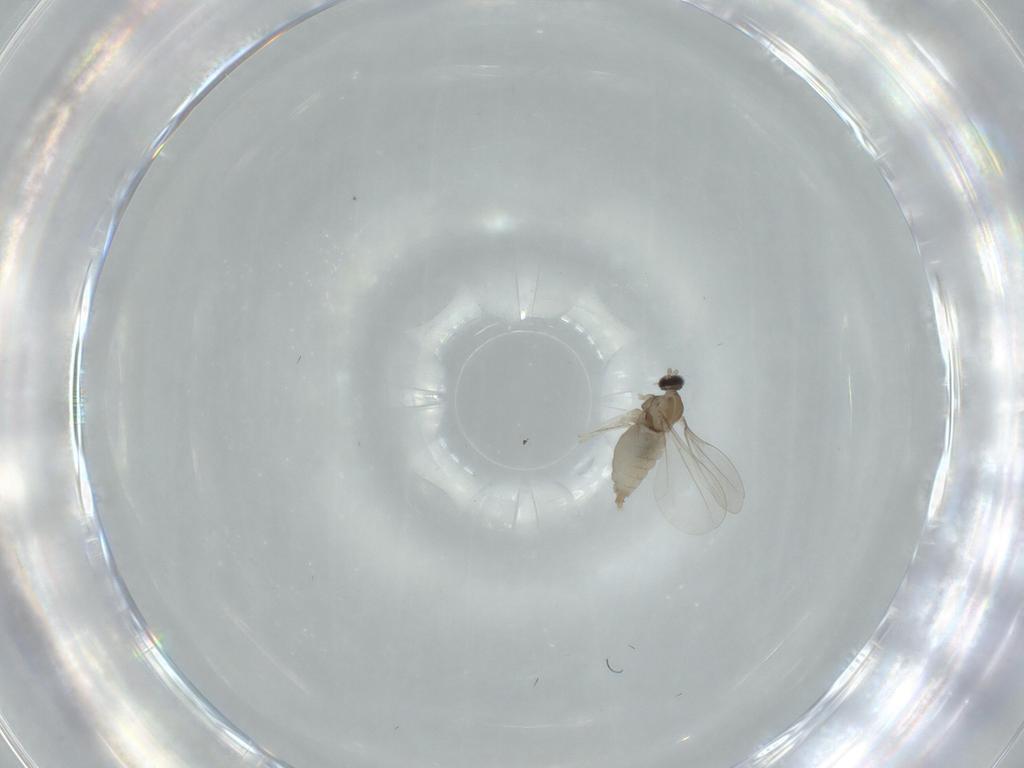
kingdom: Animalia
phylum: Arthropoda
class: Insecta
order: Diptera
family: Cecidomyiidae
